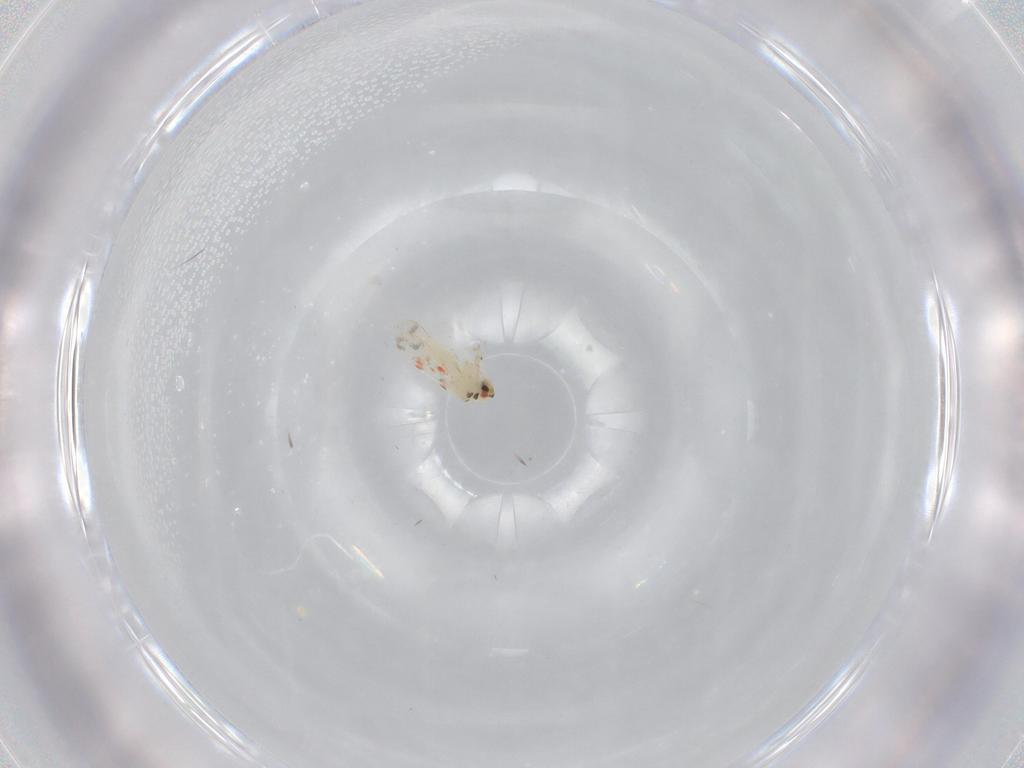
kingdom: Animalia
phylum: Arthropoda
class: Insecta
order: Hemiptera
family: Aleyrodidae
